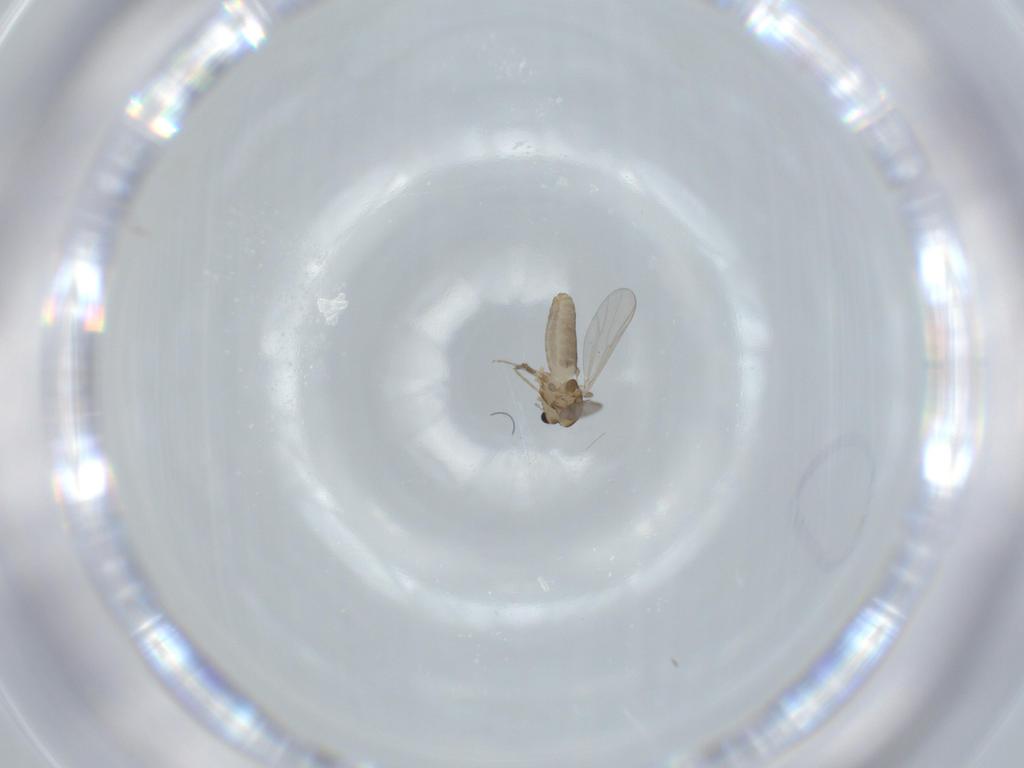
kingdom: Animalia
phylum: Arthropoda
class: Insecta
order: Diptera
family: Chironomidae
